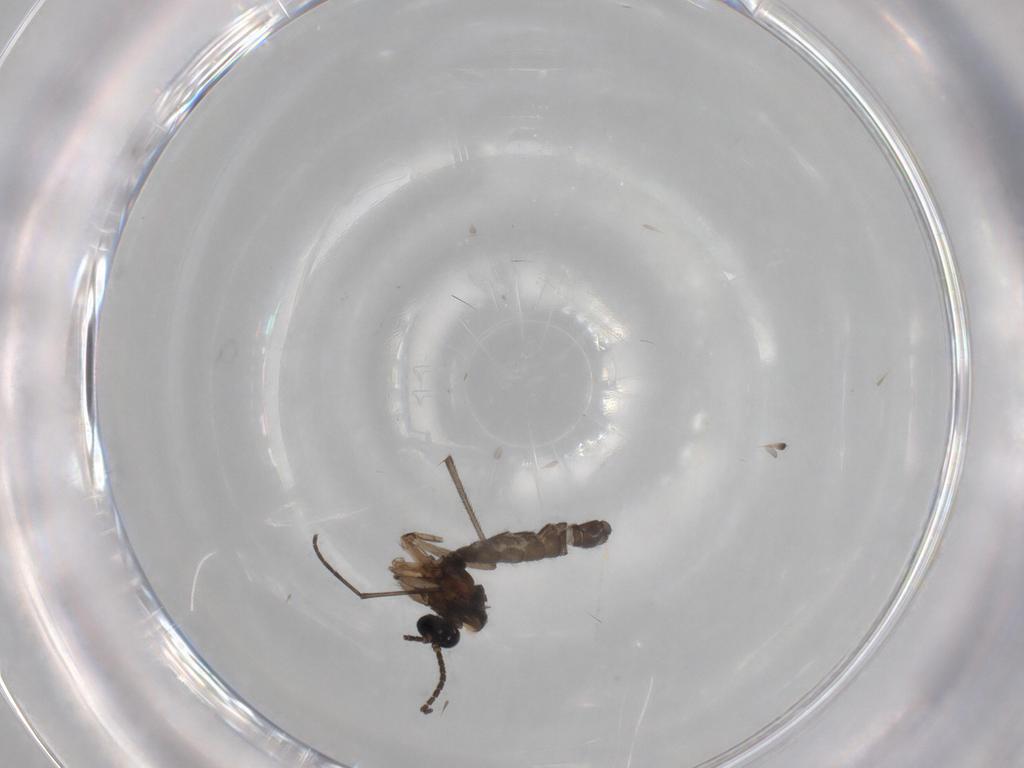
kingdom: Animalia
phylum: Arthropoda
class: Insecta
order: Diptera
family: Sciaridae
